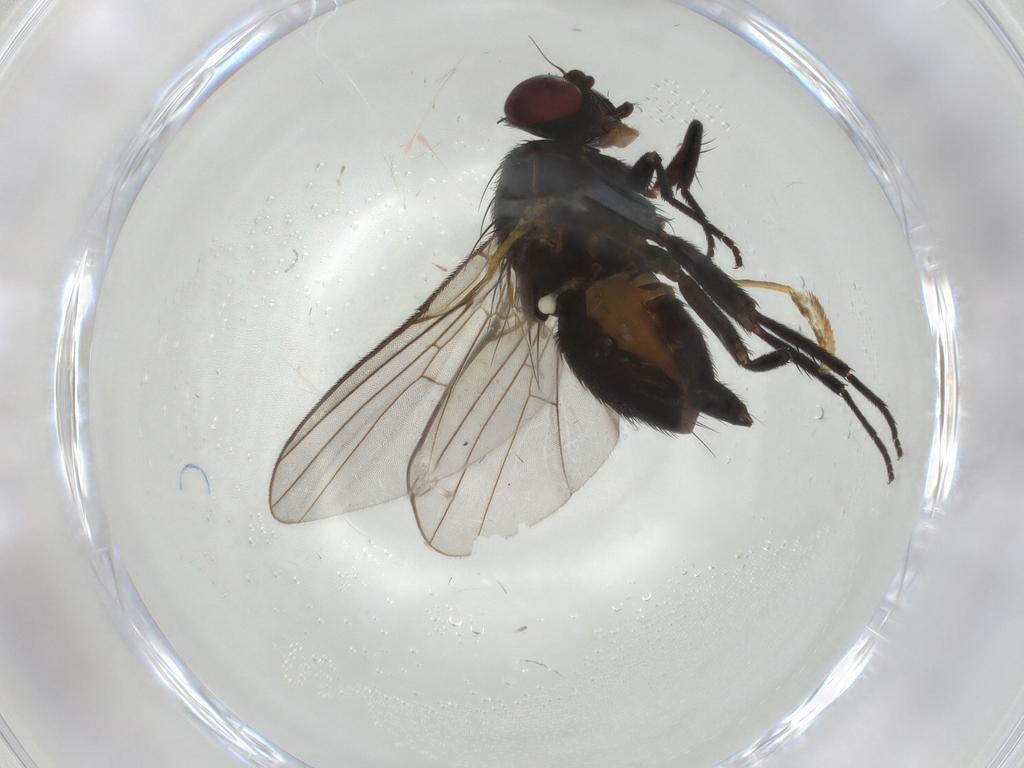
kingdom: Animalia
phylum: Arthropoda
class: Insecta
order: Diptera
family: Agromyzidae
